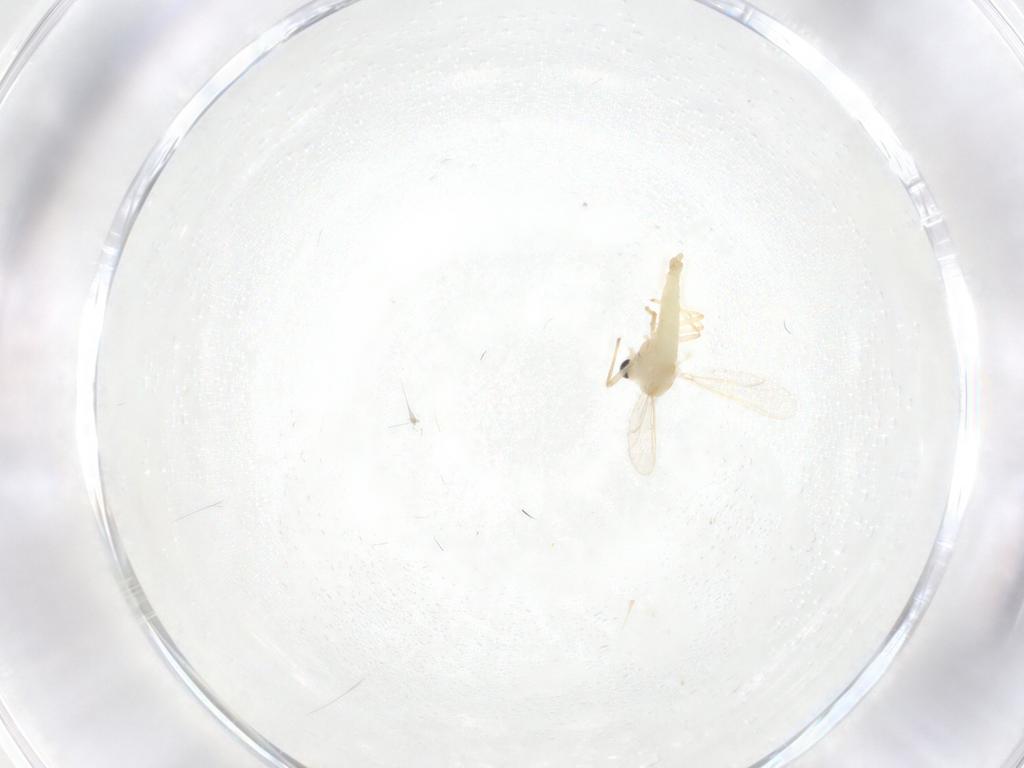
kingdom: Animalia
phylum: Arthropoda
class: Insecta
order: Diptera
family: Chironomidae
